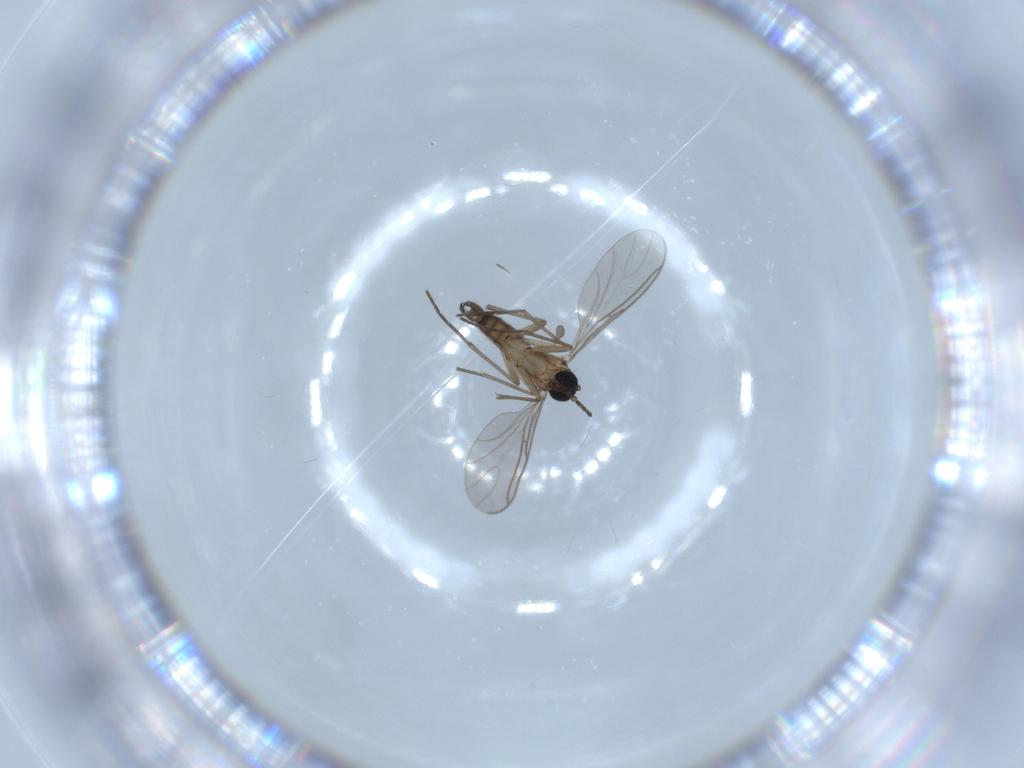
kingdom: Animalia
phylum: Arthropoda
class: Insecta
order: Diptera
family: Sciaridae
